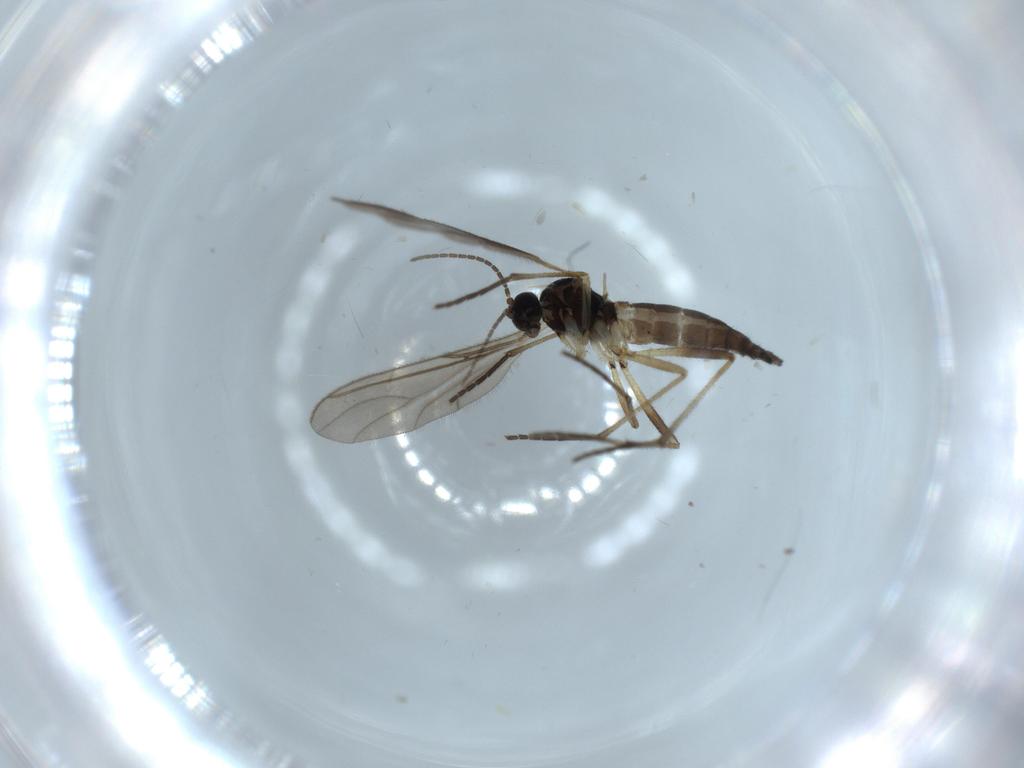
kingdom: Animalia
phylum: Arthropoda
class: Insecta
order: Diptera
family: Sciaridae
